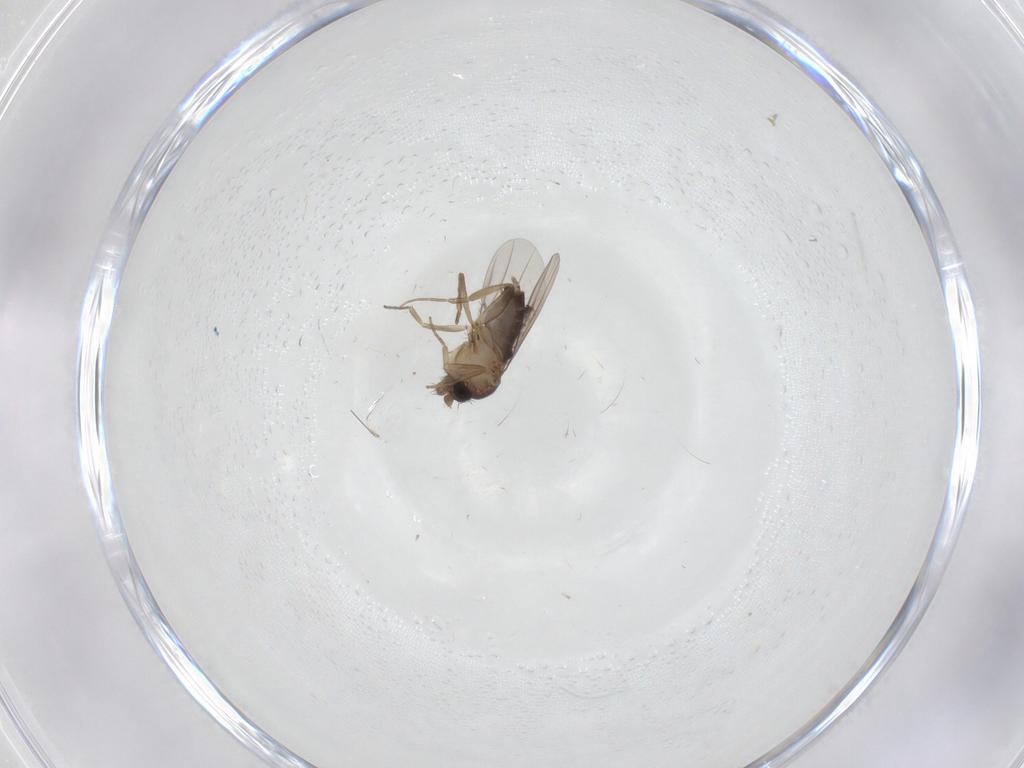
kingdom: Animalia
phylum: Arthropoda
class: Insecta
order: Diptera
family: Phoridae
